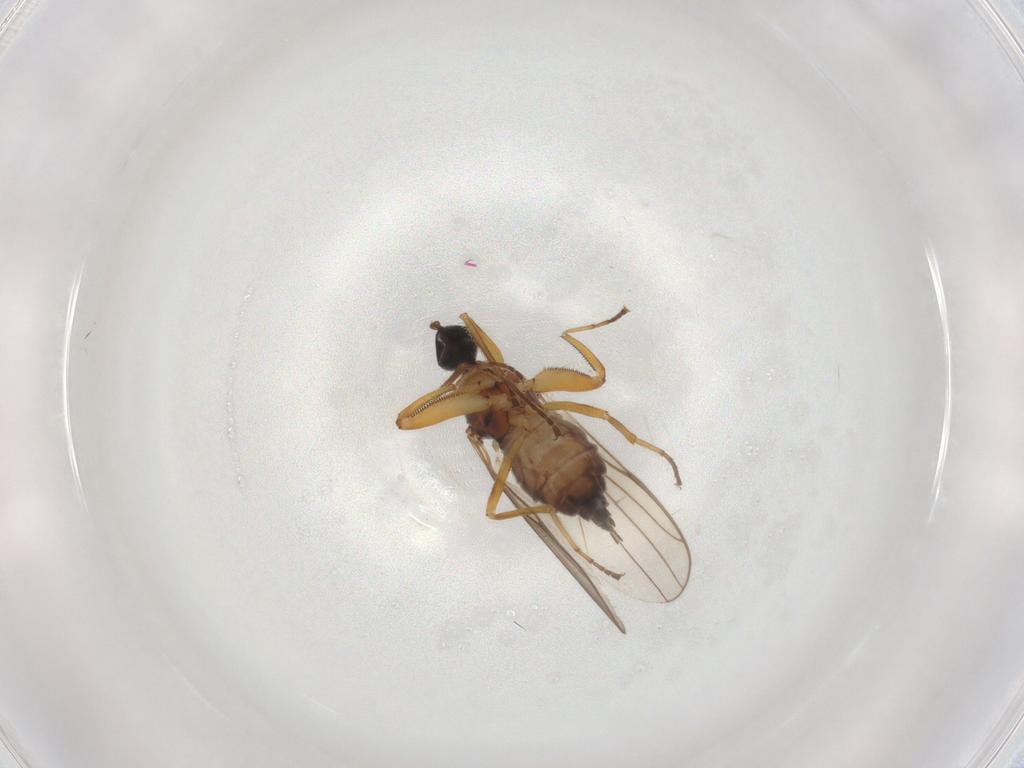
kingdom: Animalia
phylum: Arthropoda
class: Insecta
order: Diptera
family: Hybotidae
